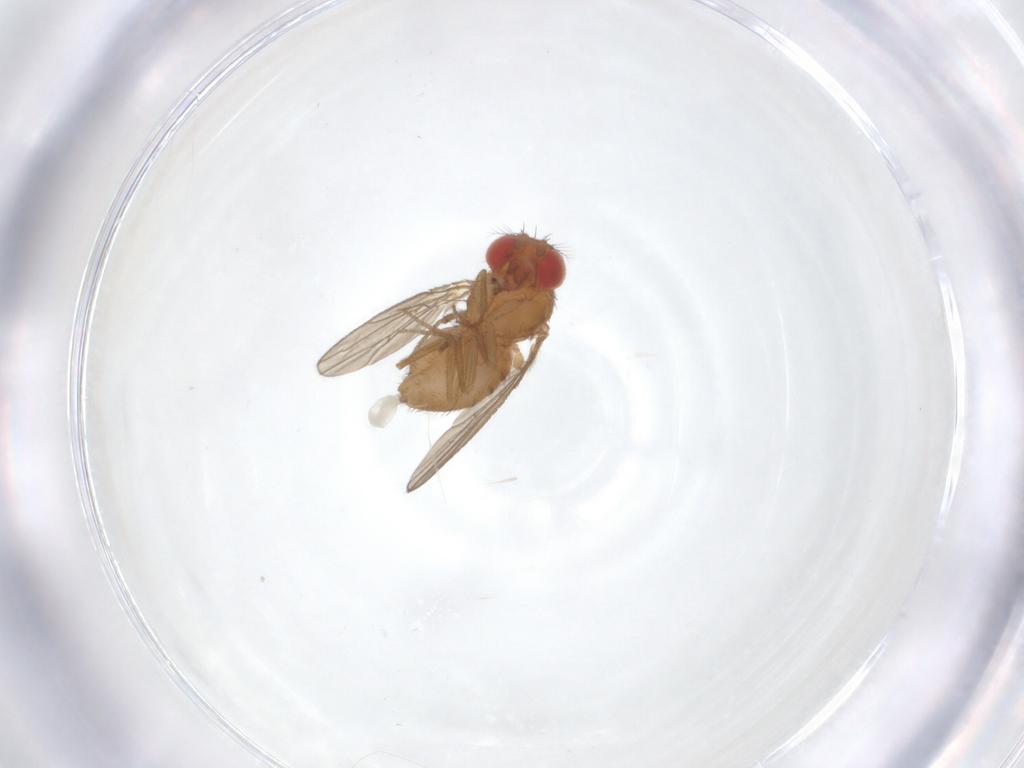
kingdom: Animalia
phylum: Arthropoda
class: Insecta
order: Diptera
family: Drosophilidae
